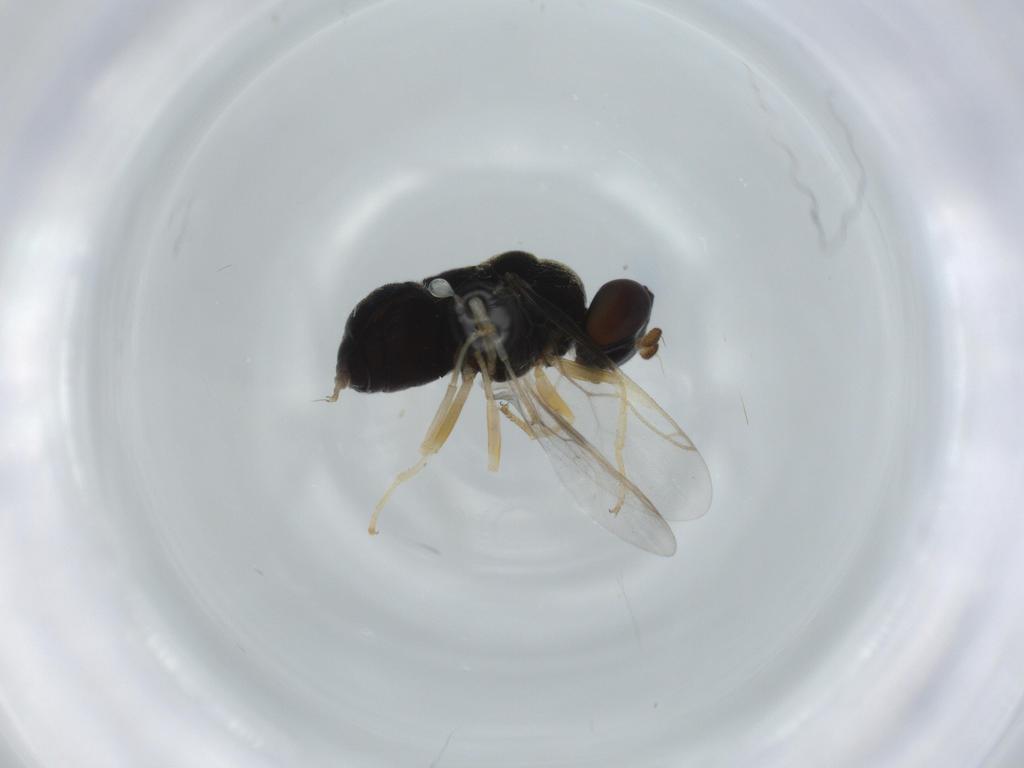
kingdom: Animalia
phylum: Arthropoda
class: Insecta
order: Diptera
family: Stratiomyidae
